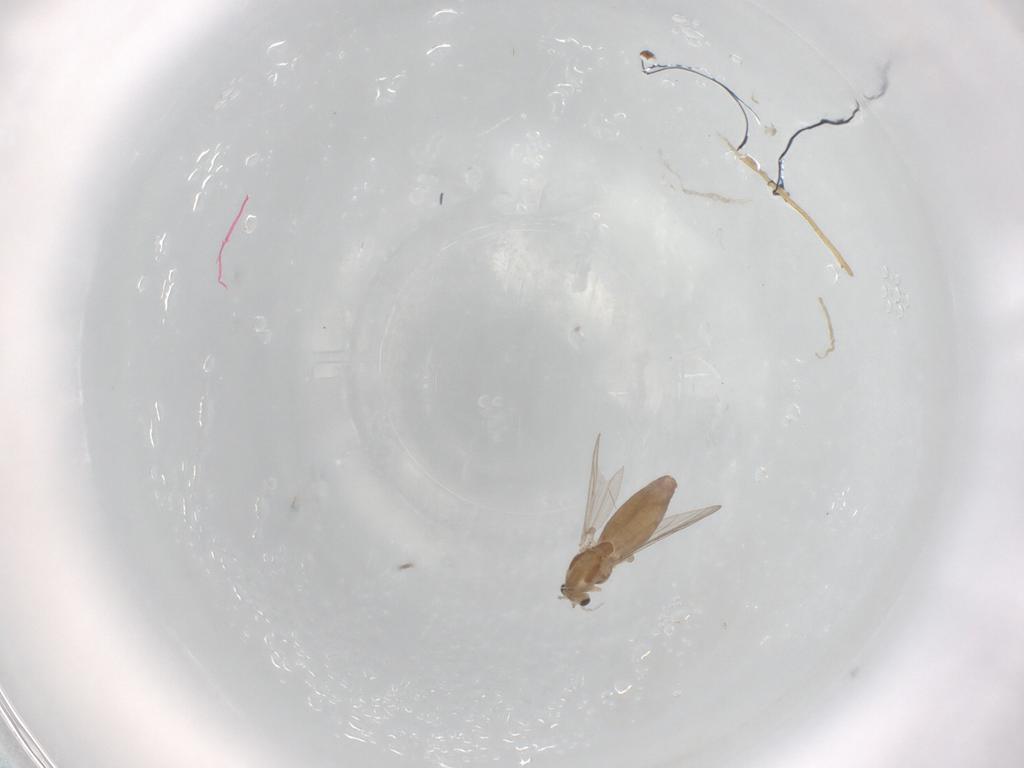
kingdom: Animalia
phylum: Arthropoda
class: Insecta
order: Diptera
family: Chironomidae
